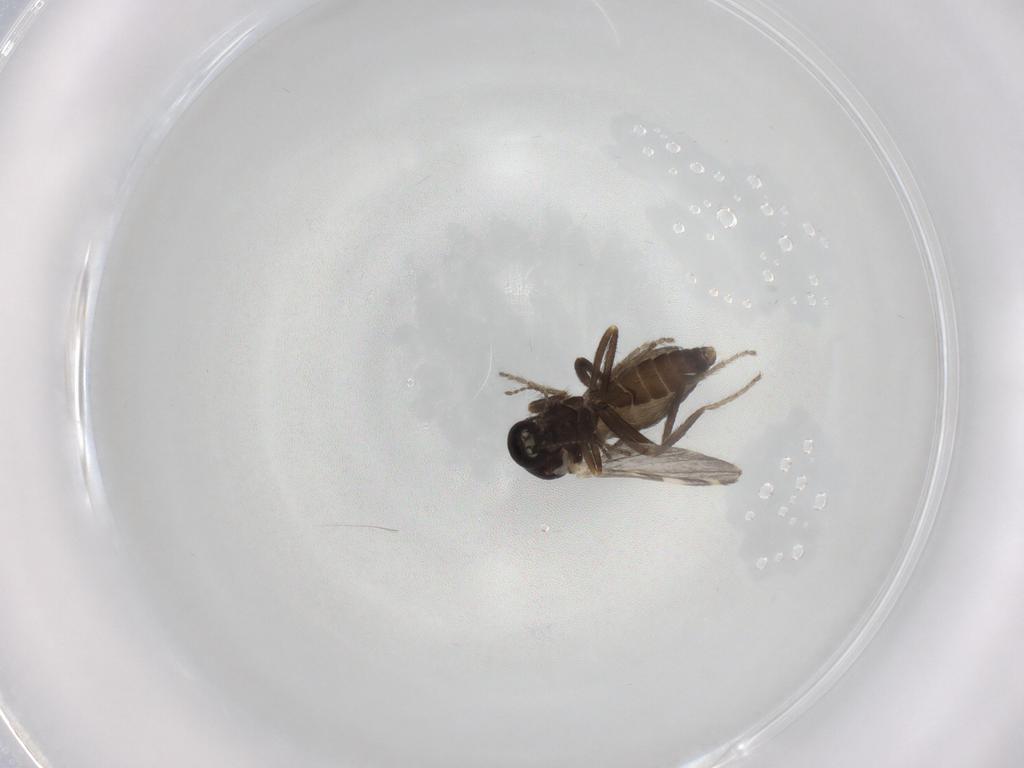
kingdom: Animalia
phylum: Arthropoda
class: Insecta
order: Diptera
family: Ceratopogonidae
